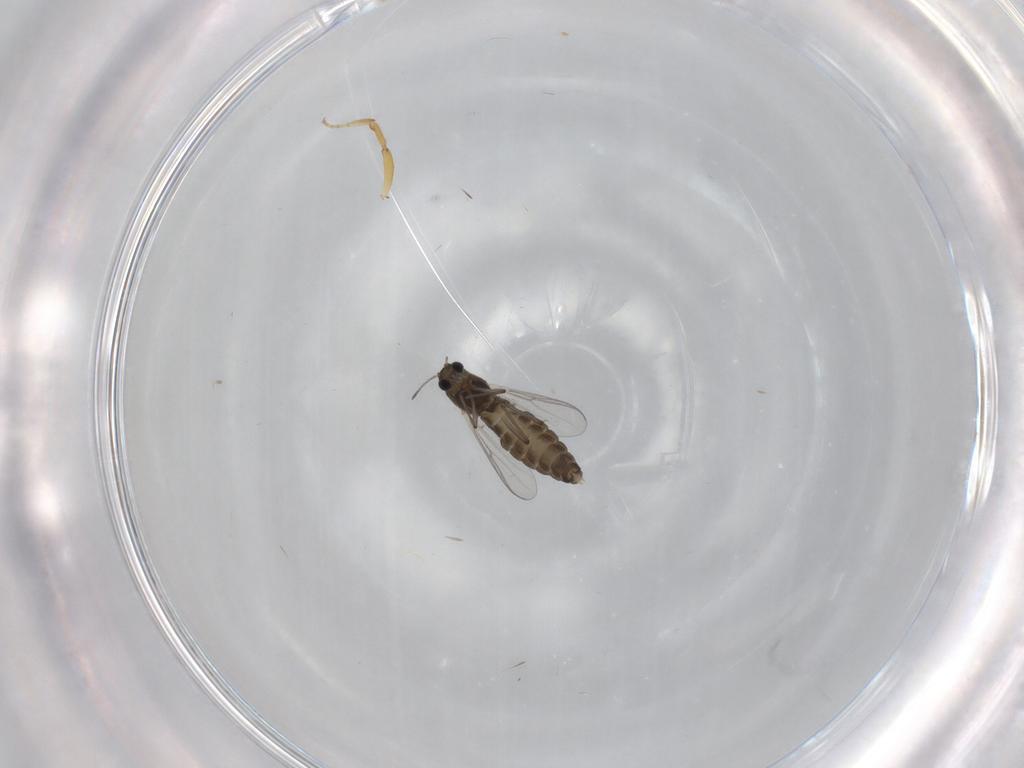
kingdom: Animalia
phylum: Arthropoda
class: Insecta
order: Diptera
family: Chironomidae
